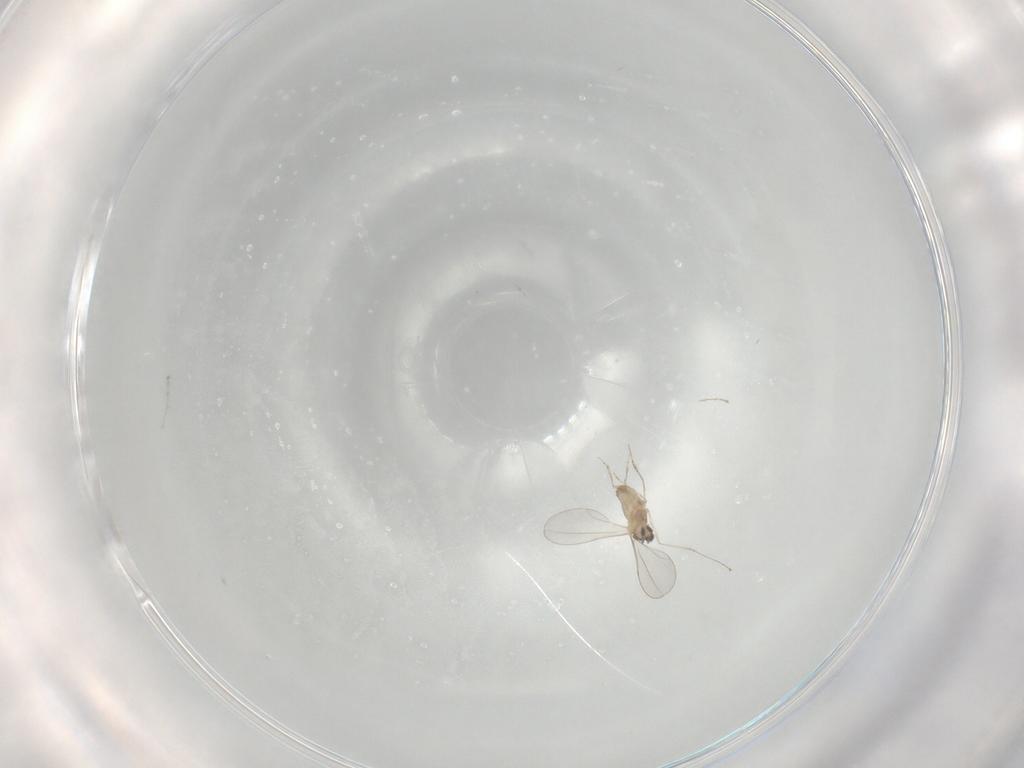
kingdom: Animalia
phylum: Arthropoda
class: Insecta
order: Diptera
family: Cecidomyiidae
